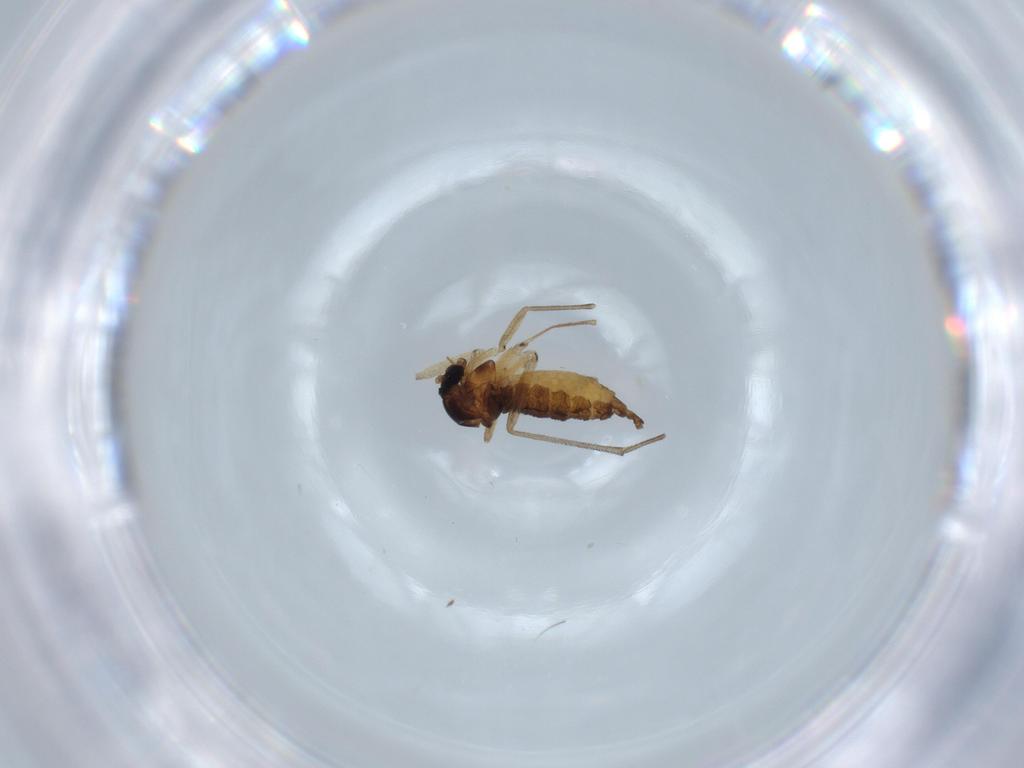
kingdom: Animalia
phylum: Arthropoda
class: Insecta
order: Diptera
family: Sciaridae
